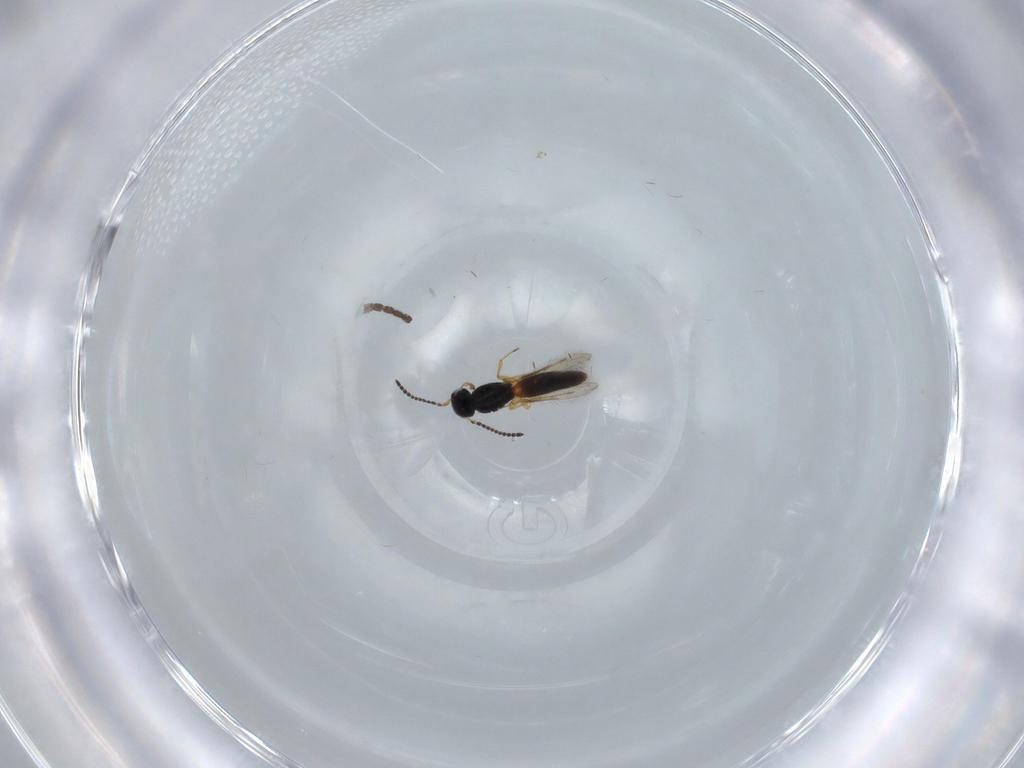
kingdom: Animalia
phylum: Arthropoda
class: Insecta
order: Hymenoptera
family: Scelionidae
